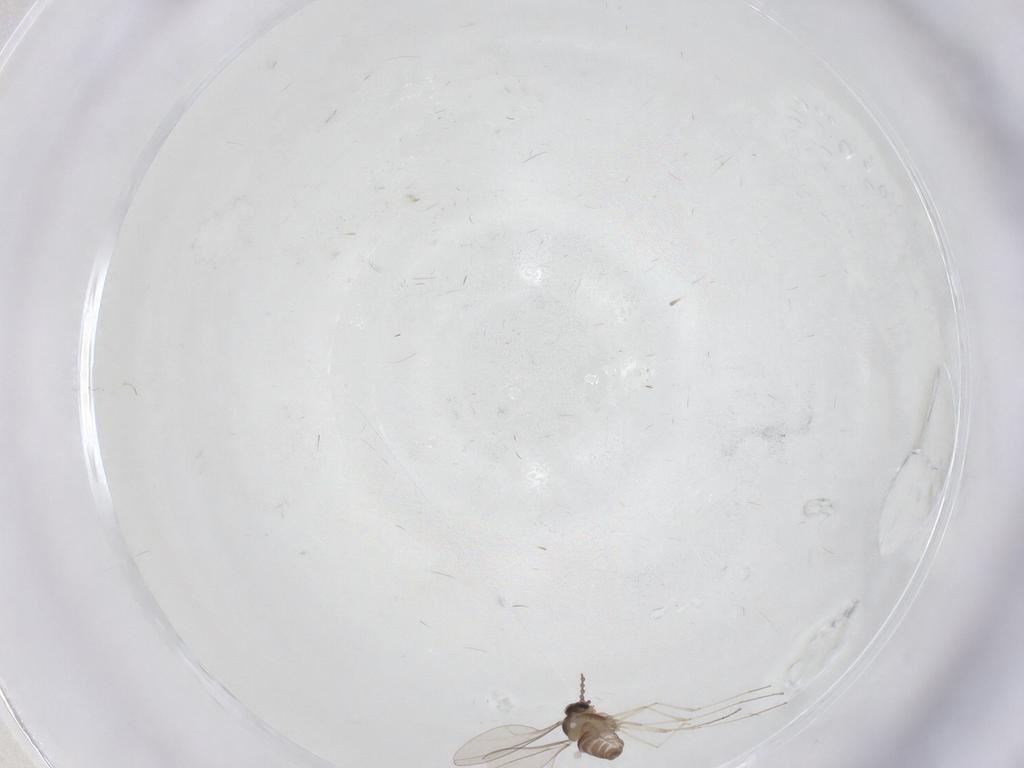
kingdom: Animalia
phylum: Arthropoda
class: Insecta
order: Diptera
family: Cecidomyiidae
